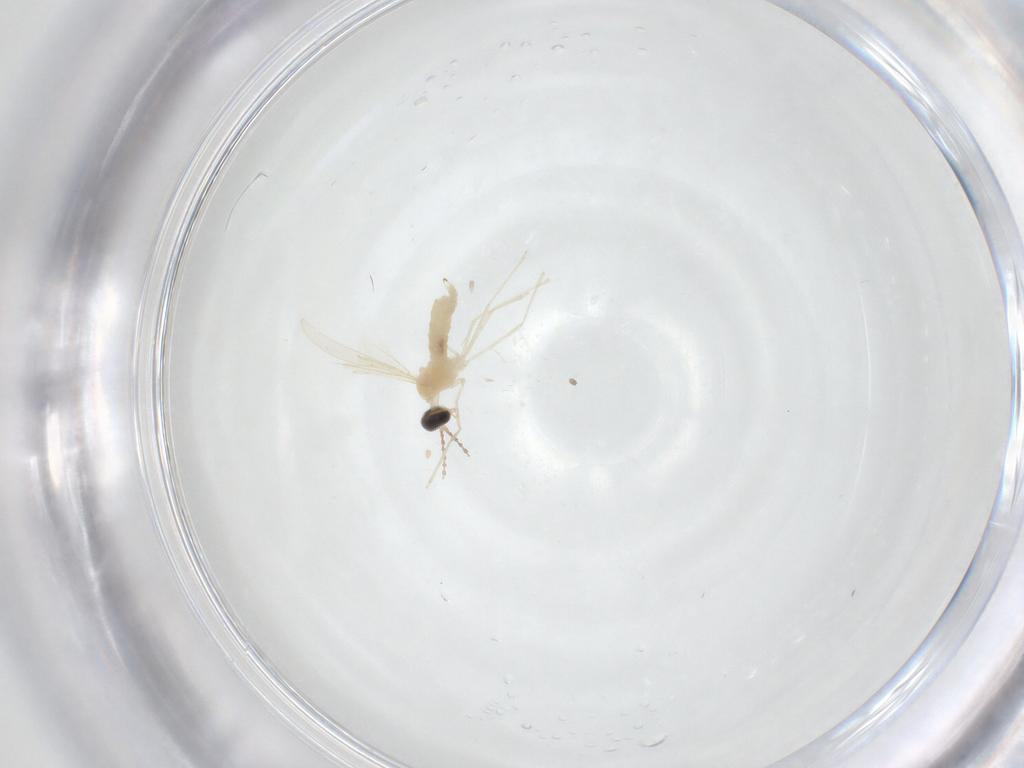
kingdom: Animalia
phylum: Arthropoda
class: Insecta
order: Diptera
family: Cecidomyiidae
